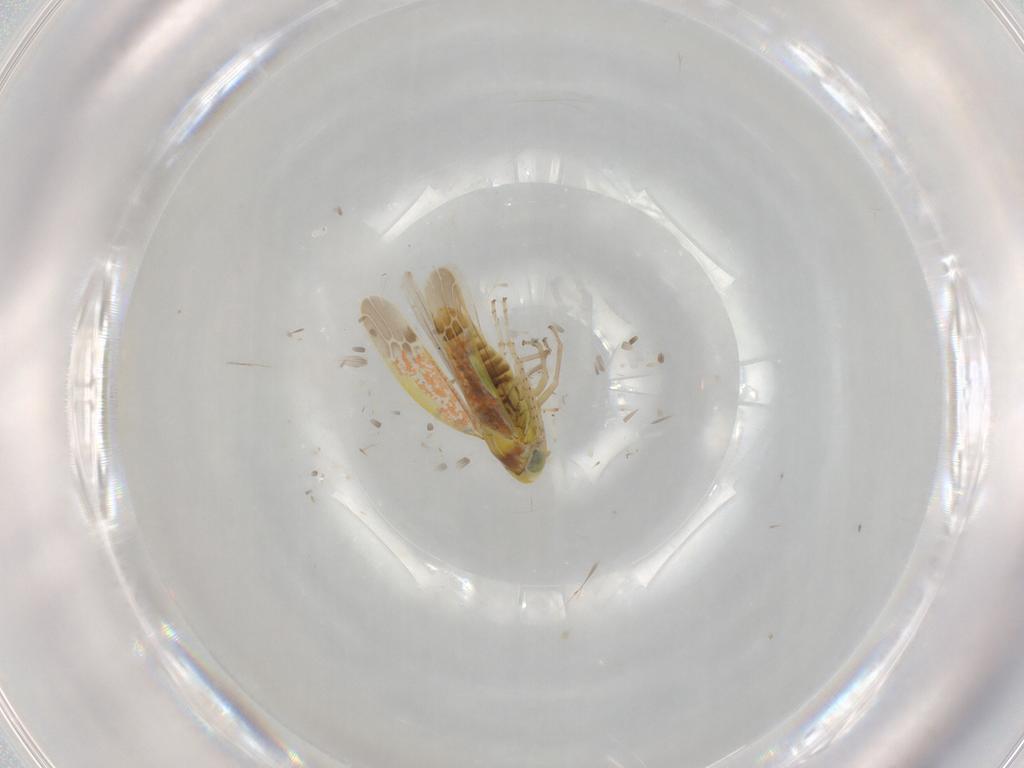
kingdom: Animalia
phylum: Arthropoda
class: Insecta
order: Hemiptera
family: Cicadellidae
